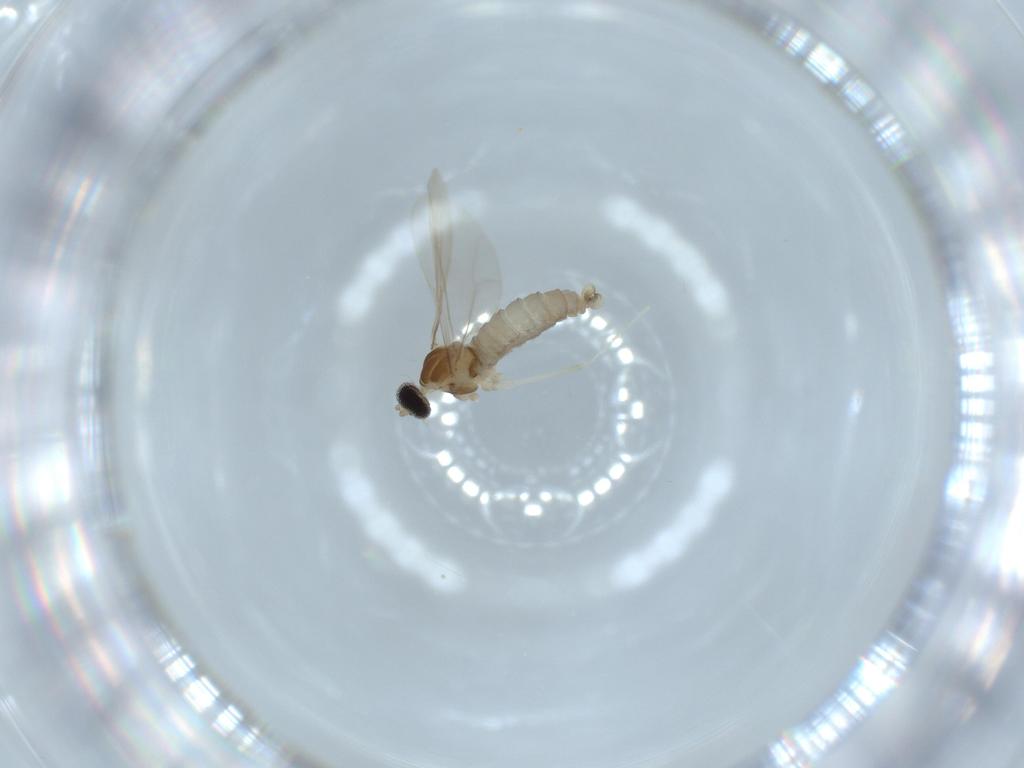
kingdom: Animalia
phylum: Arthropoda
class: Insecta
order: Diptera
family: Cecidomyiidae
